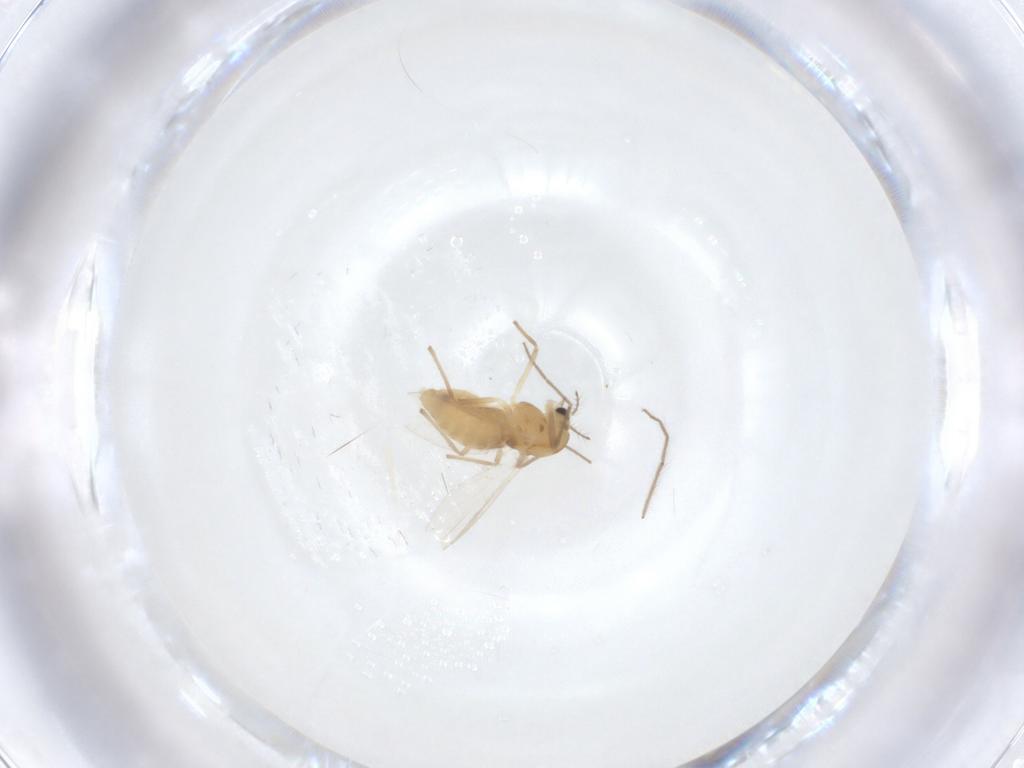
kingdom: Animalia
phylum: Arthropoda
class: Insecta
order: Diptera
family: Chironomidae
